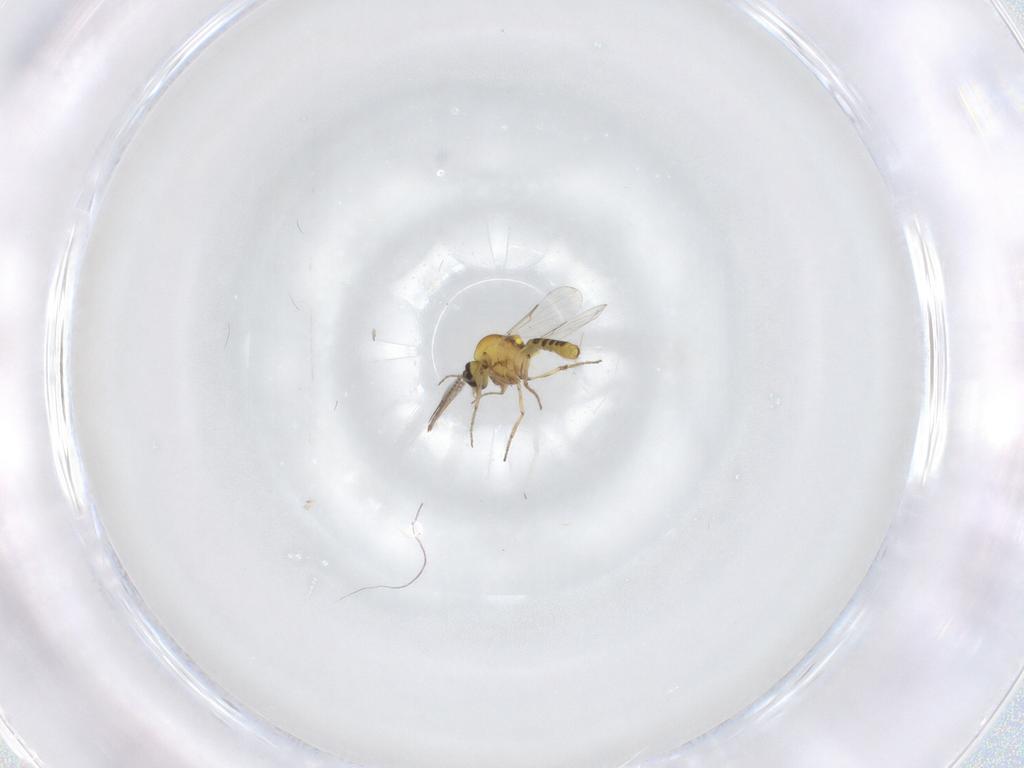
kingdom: Animalia
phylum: Arthropoda
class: Insecta
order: Diptera
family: Ceratopogonidae
